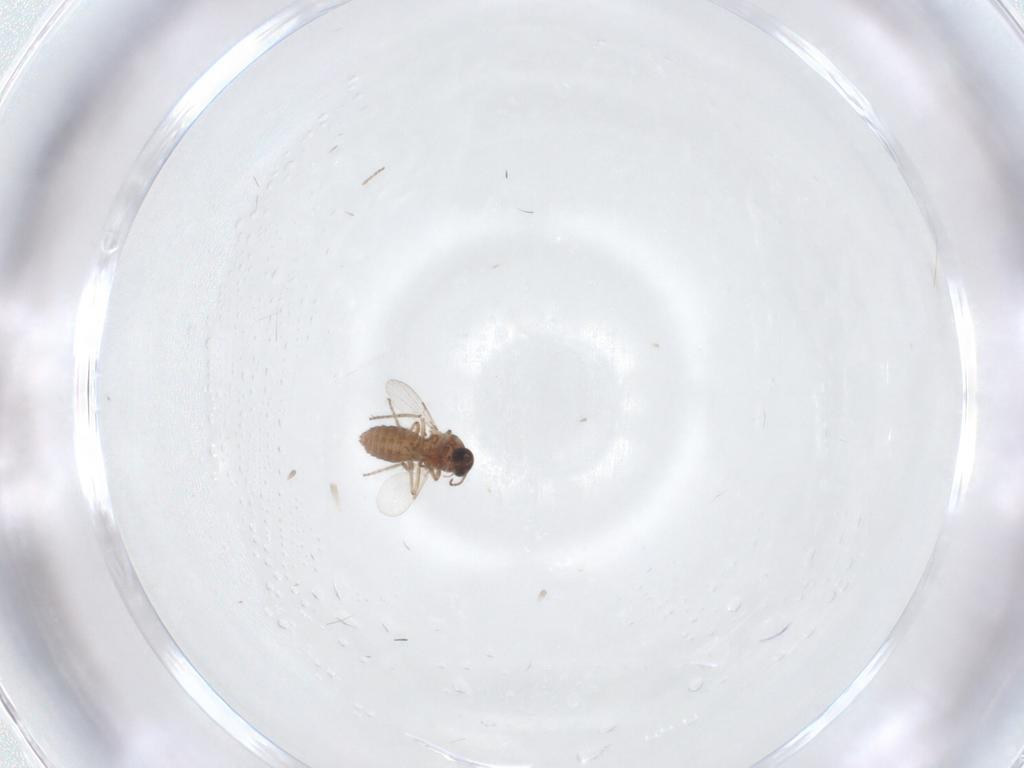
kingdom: Animalia
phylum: Arthropoda
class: Insecta
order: Diptera
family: Ceratopogonidae
